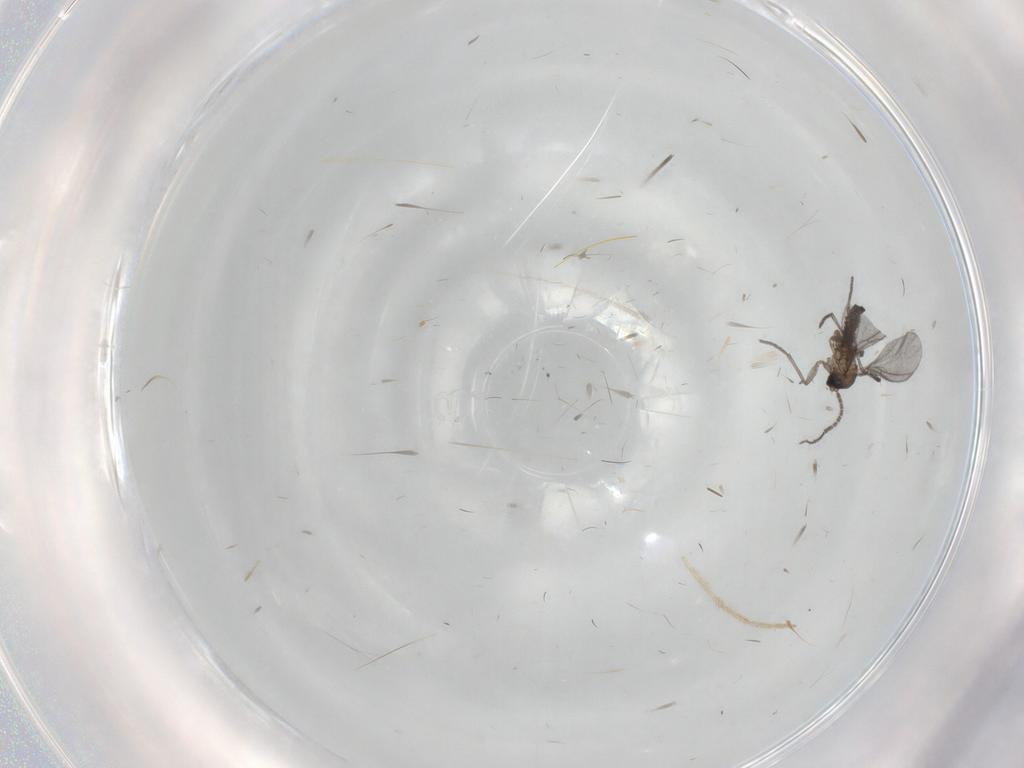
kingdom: Animalia
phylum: Arthropoda
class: Insecta
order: Diptera
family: Sciaridae
